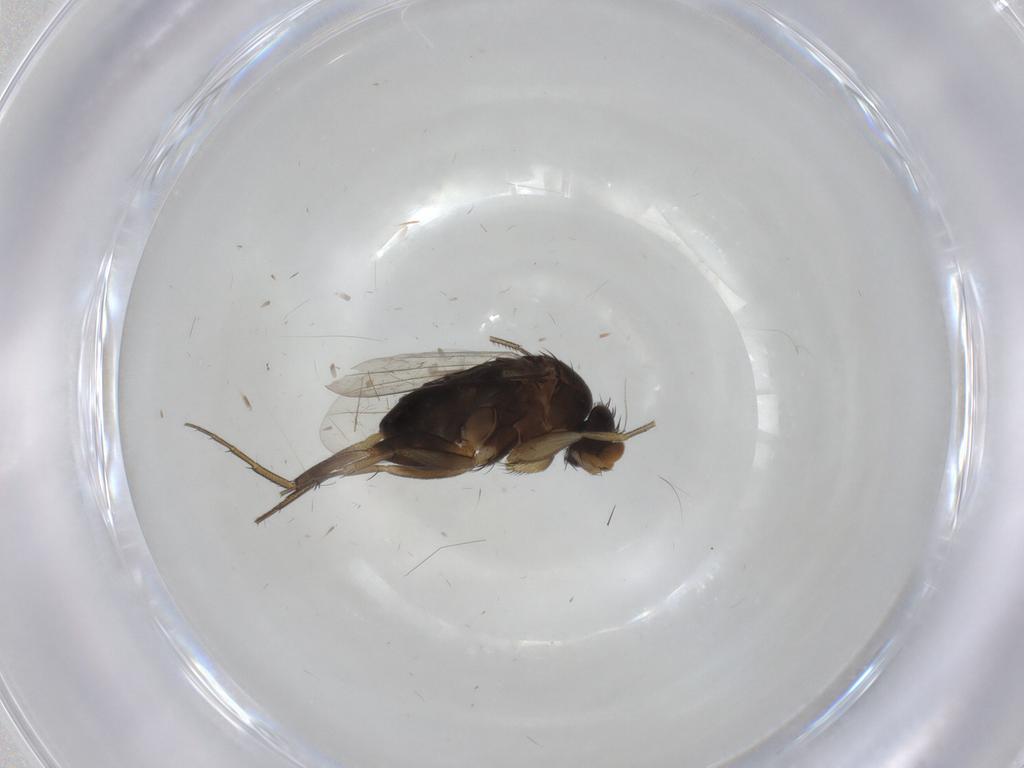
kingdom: Animalia
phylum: Arthropoda
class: Insecta
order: Diptera
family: Phoridae
